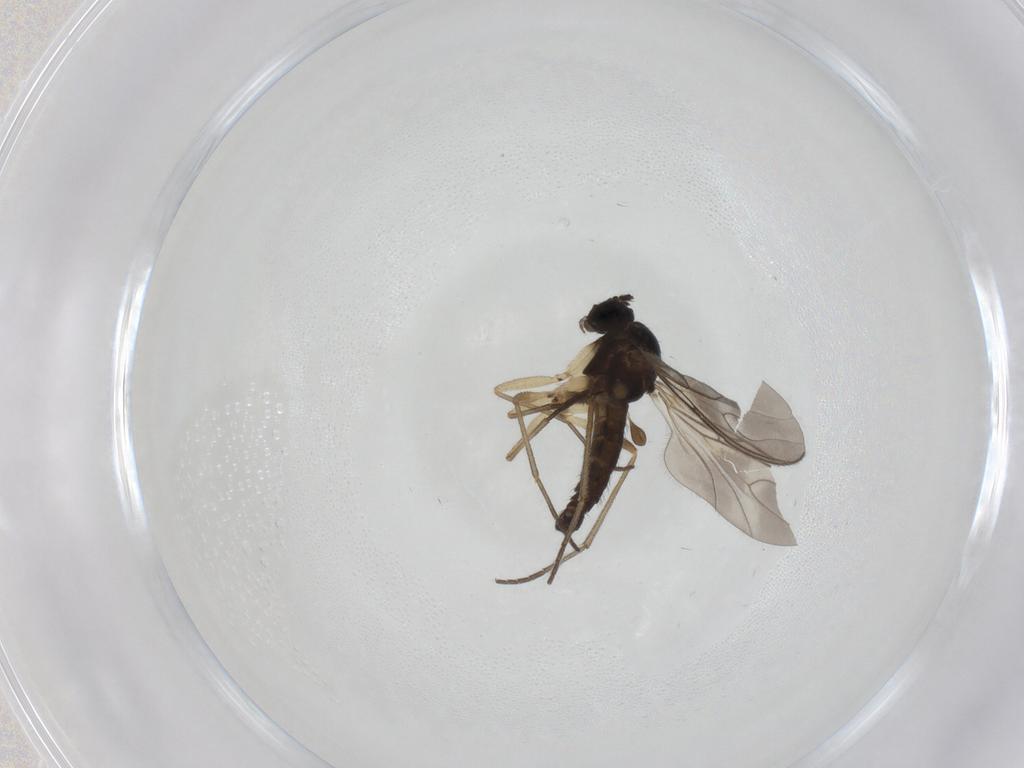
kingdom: Animalia
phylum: Arthropoda
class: Insecta
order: Diptera
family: Sciaridae
